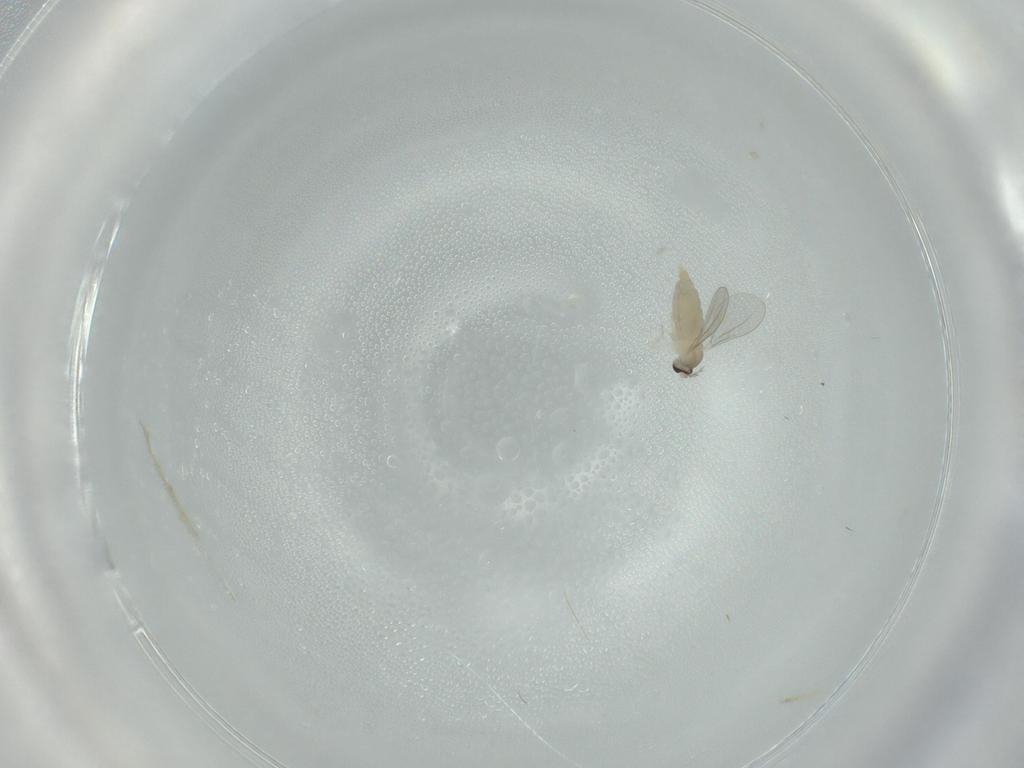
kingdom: Animalia
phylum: Arthropoda
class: Insecta
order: Diptera
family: Cecidomyiidae
